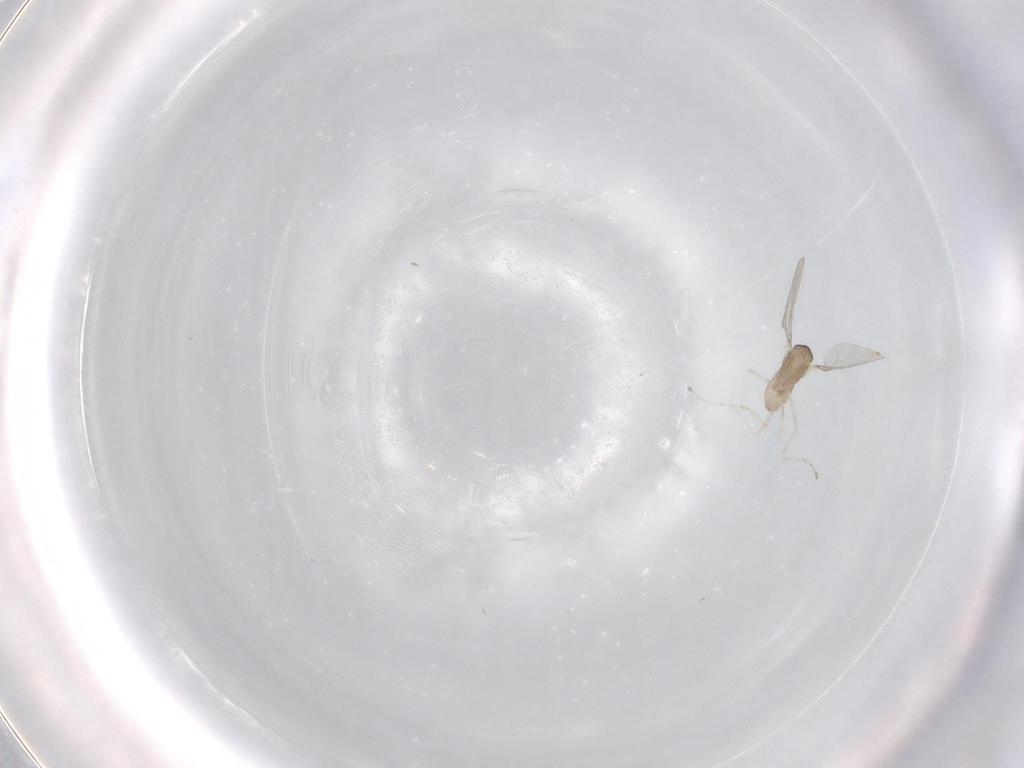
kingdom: Animalia
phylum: Arthropoda
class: Insecta
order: Diptera
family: Cecidomyiidae
